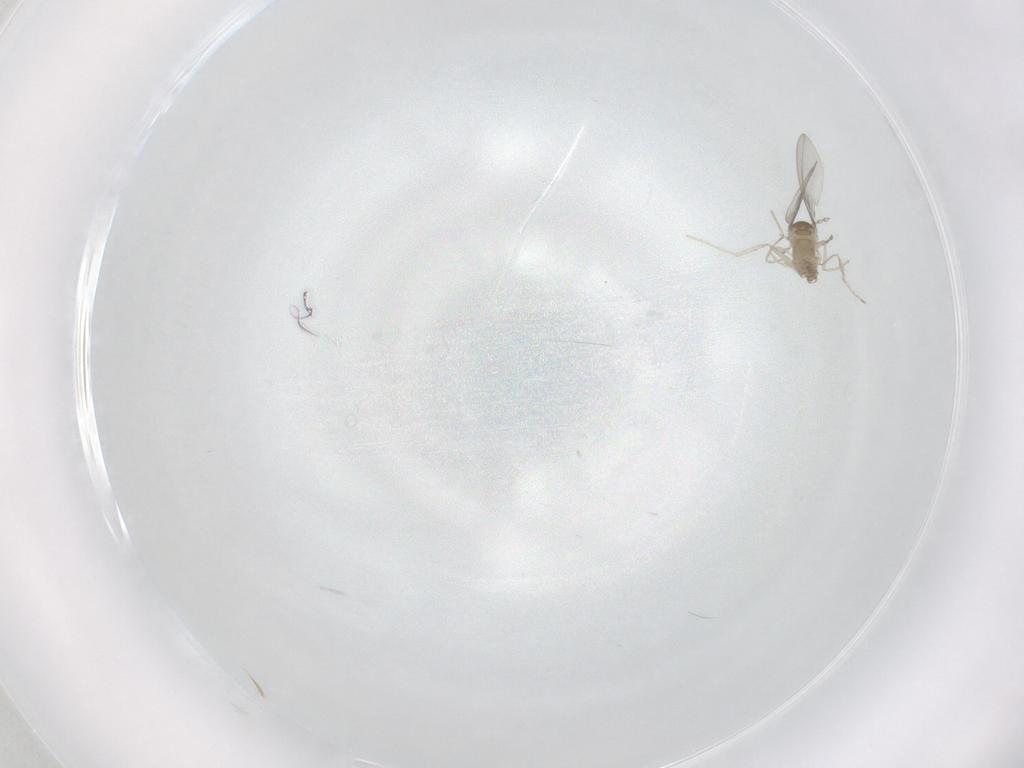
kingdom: Animalia
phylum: Arthropoda
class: Insecta
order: Diptera
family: Cecidomyiidae
